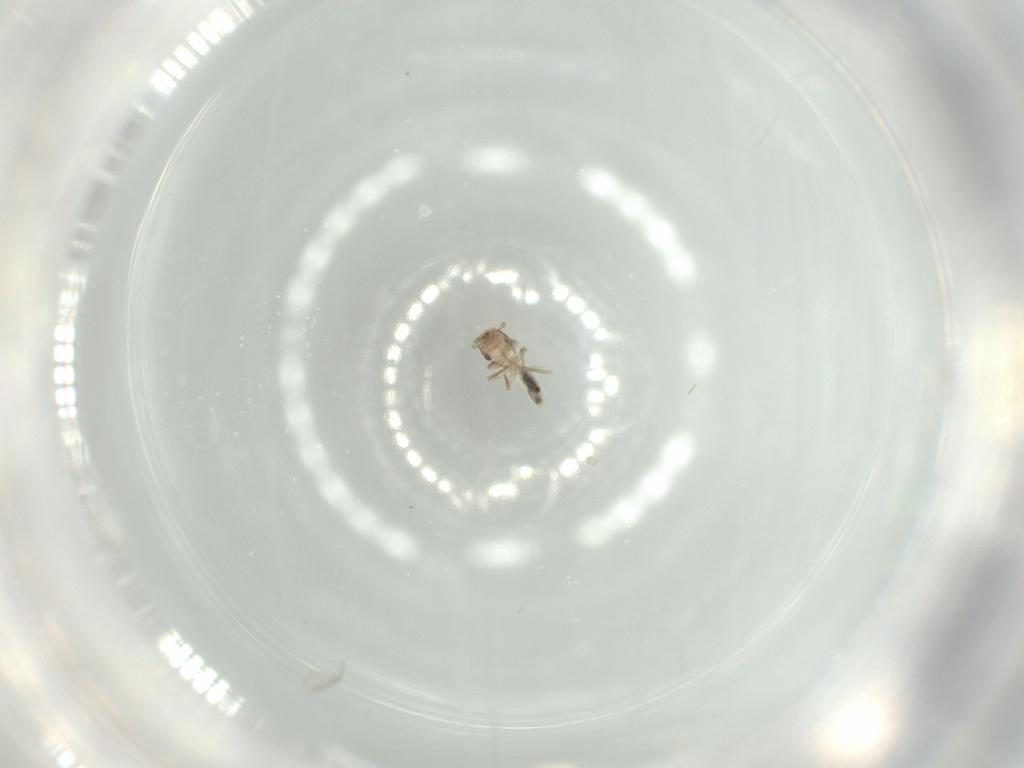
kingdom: Animalia
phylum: Arthropoda
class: Insecta
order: Psocodea
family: Lepidopsocidae
